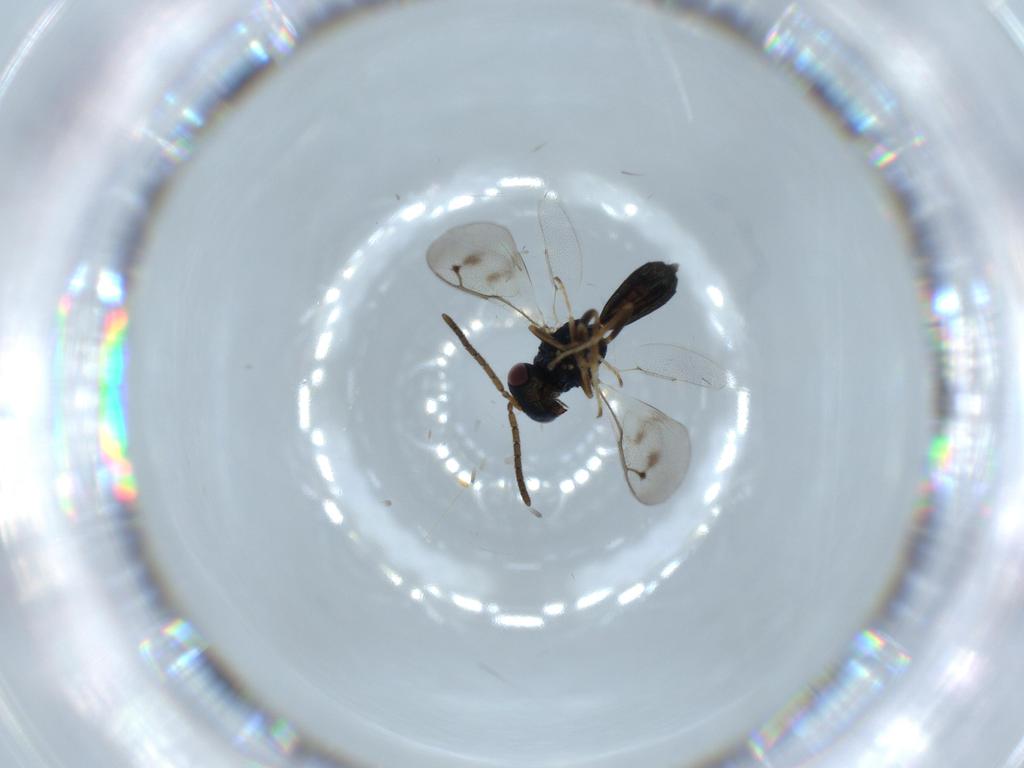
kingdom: Animalia
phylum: Arthropoda
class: Insecta
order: Hymenoptera
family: Pteromalidae
